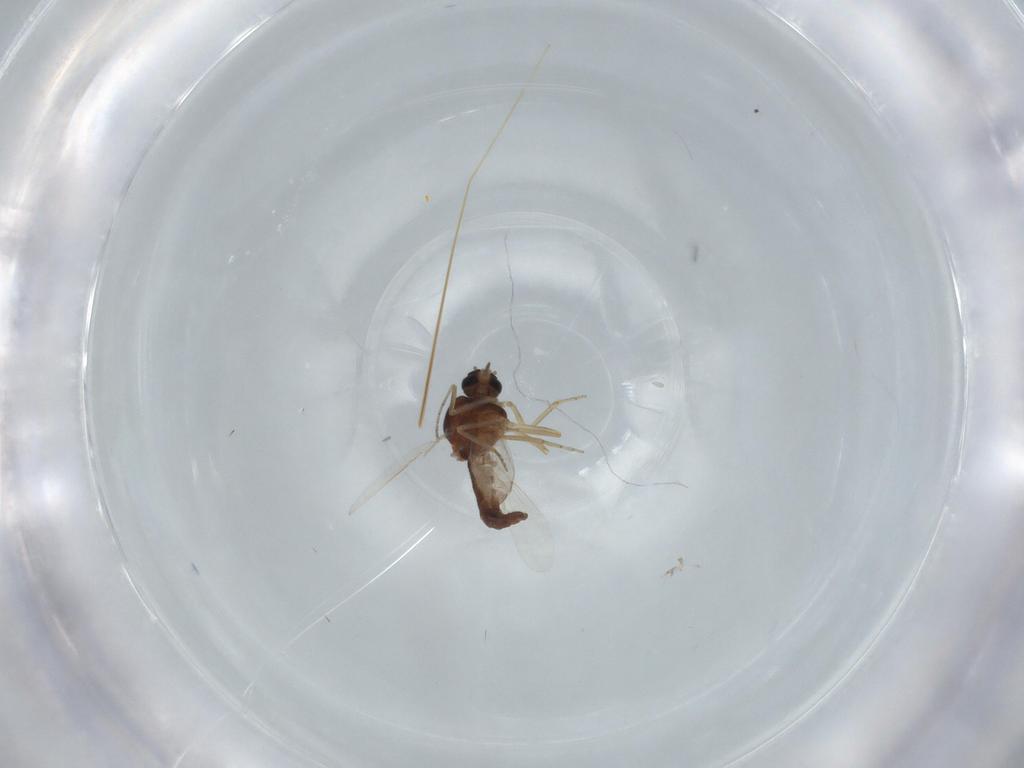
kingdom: Animalia
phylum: Arthropoda
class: Insecta
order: Diptera
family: Ceratopogonidae
